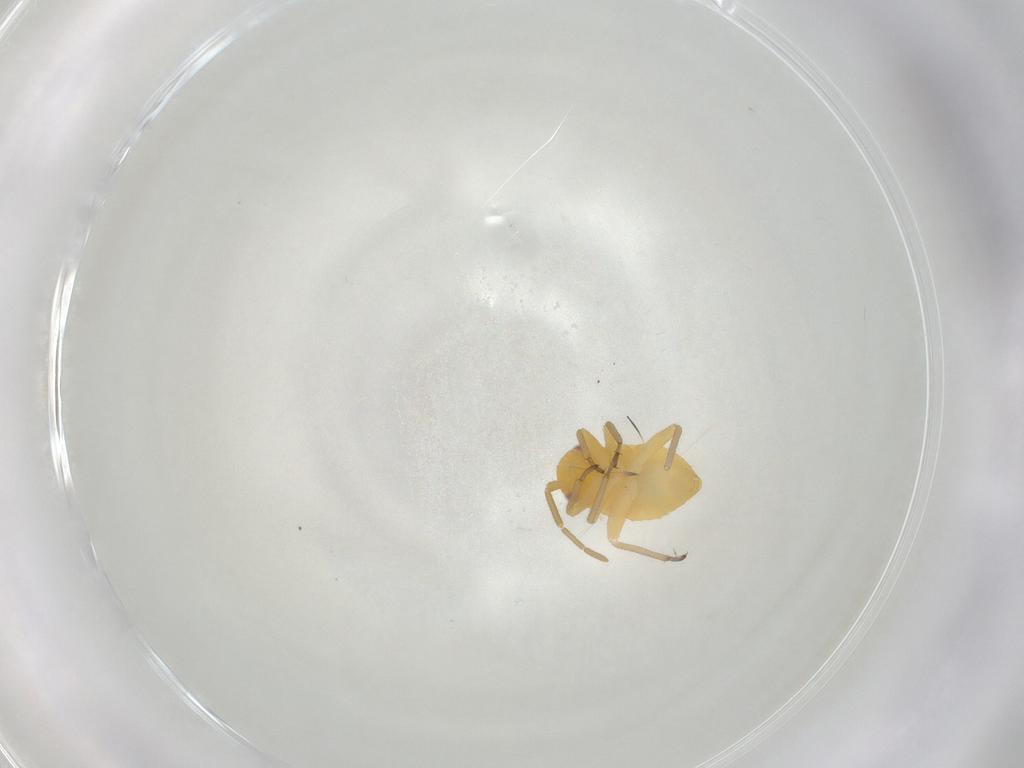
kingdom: Animalia
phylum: Arthropoda
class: Insecta
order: Hemiptera
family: Miridae
